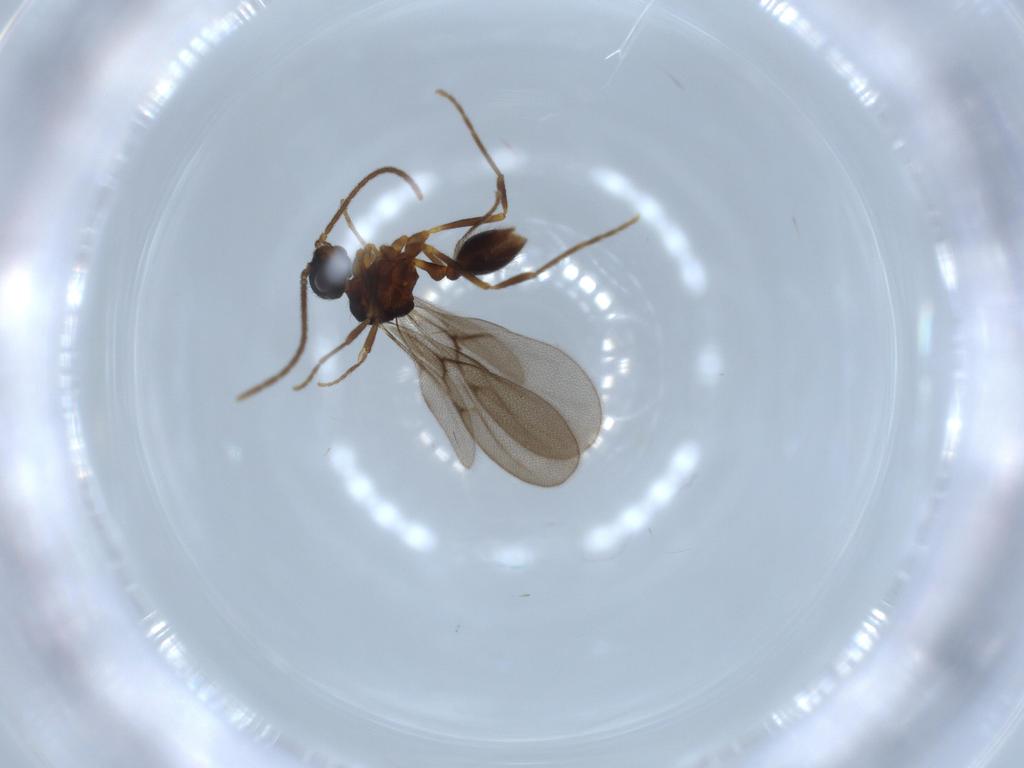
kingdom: Animalia
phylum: Arthropoda
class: Insecta
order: Hymenoptera
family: Formicidae
